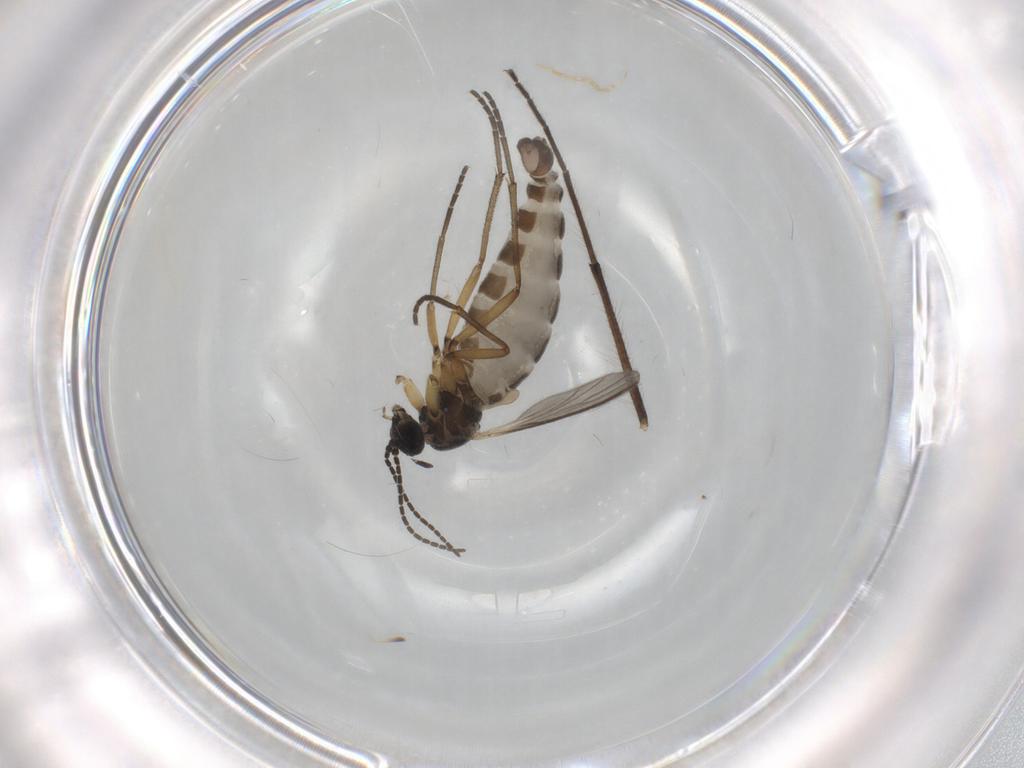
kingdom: Animalia
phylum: Arthropoda
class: Insecta
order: Diptera
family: Sciaridae
